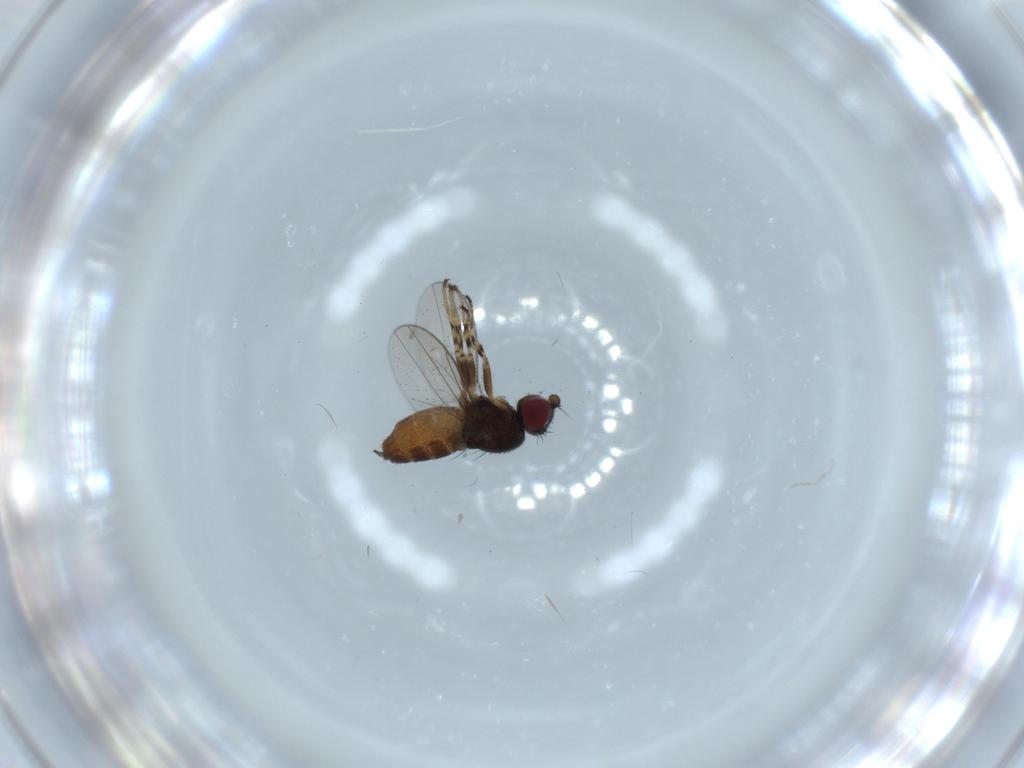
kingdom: Animalia
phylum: Arthropoda
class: Insecta
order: Diptera
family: Chloropidae
